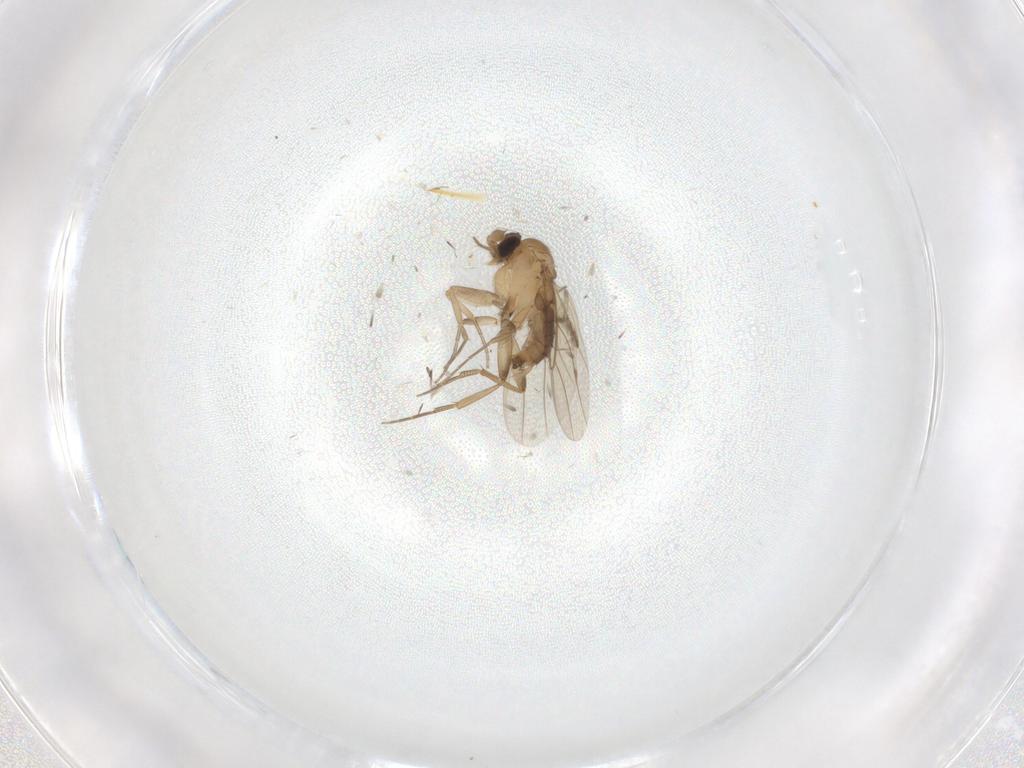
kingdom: Animalia
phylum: Arthropoda
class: Insecta
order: Diptera
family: Phoridae
